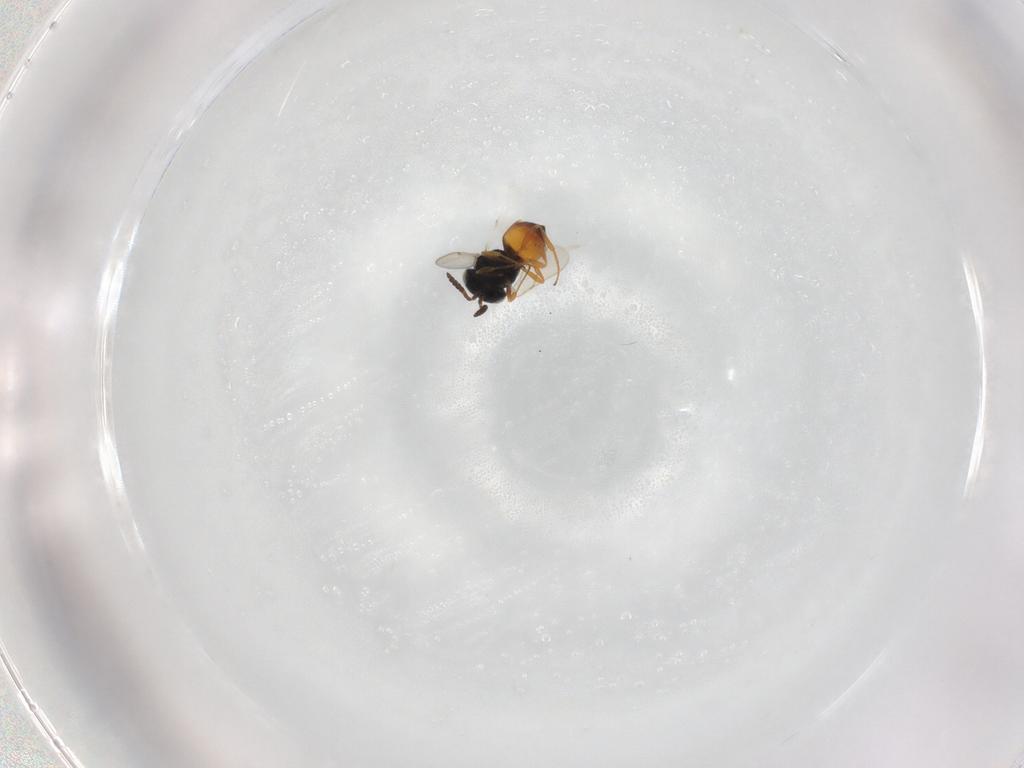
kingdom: Animalia
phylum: Arthropoda
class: Insecta
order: Hymenoptera
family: Scelionidae
